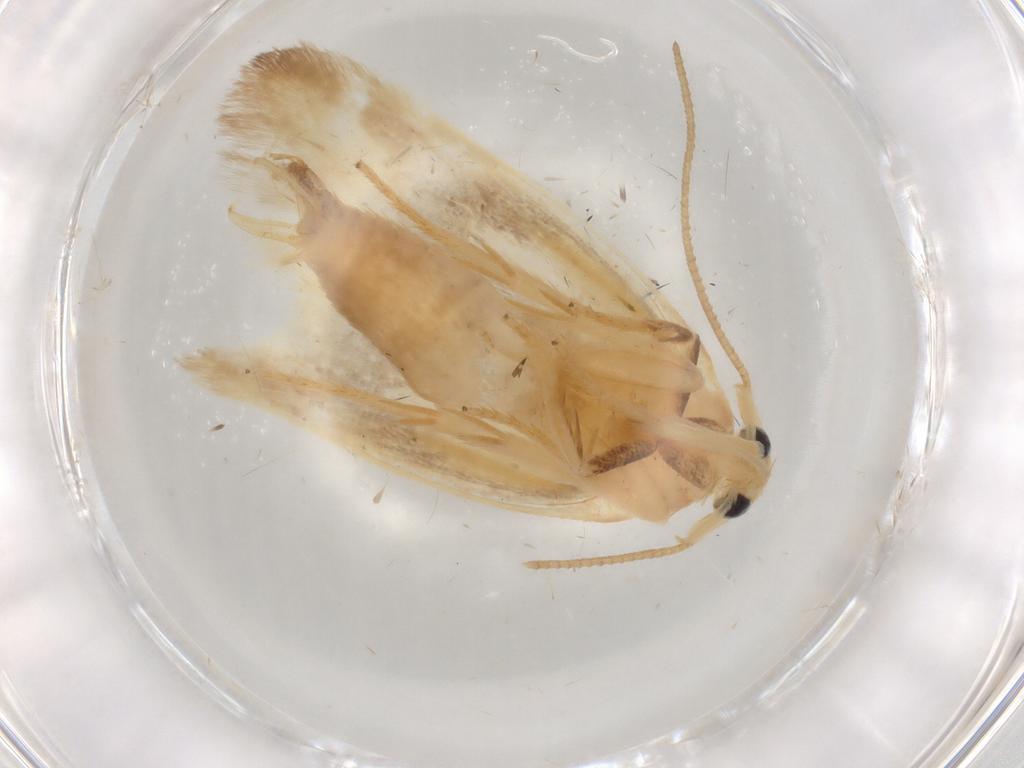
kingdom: Animalia
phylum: Arthropoda
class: Insecta
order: Lepidoptera
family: Geometridae
